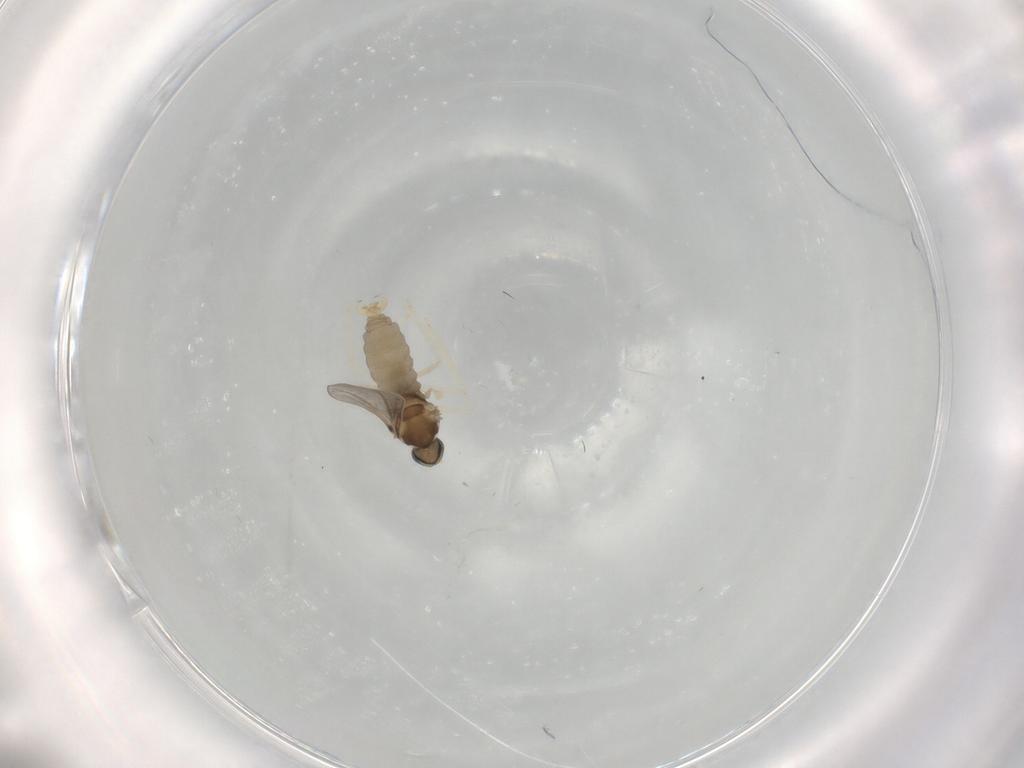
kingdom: Animalia
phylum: Arthropoda
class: Insecta
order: Diptera
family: Cecidomyiidae
